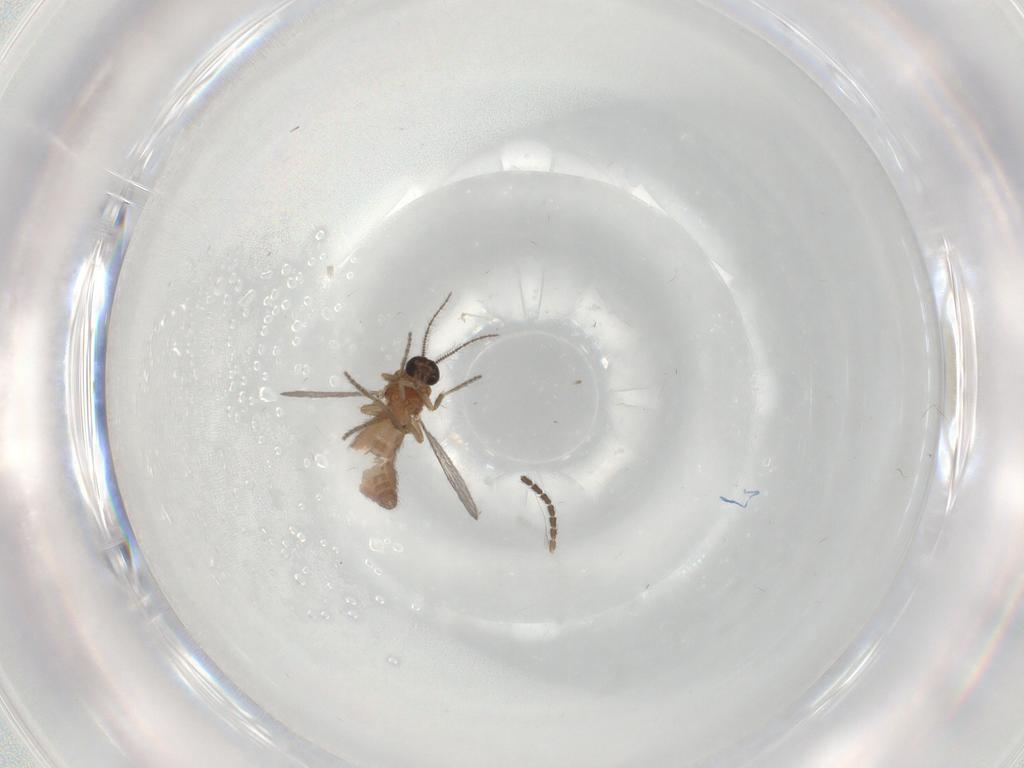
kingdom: Animalia
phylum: Arthropoda
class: Insecta
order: Diptera
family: Ceratopogonidae
